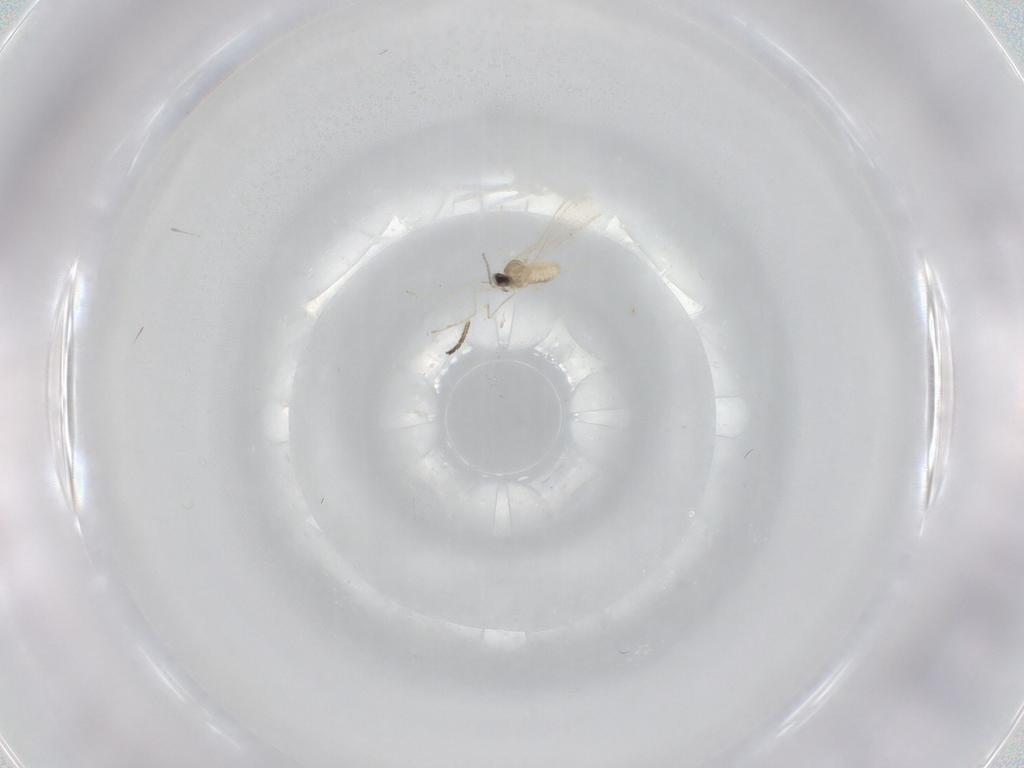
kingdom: Animalia
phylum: Arthropoda
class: Insecta
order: Diptera
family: Cecidomyiidae
